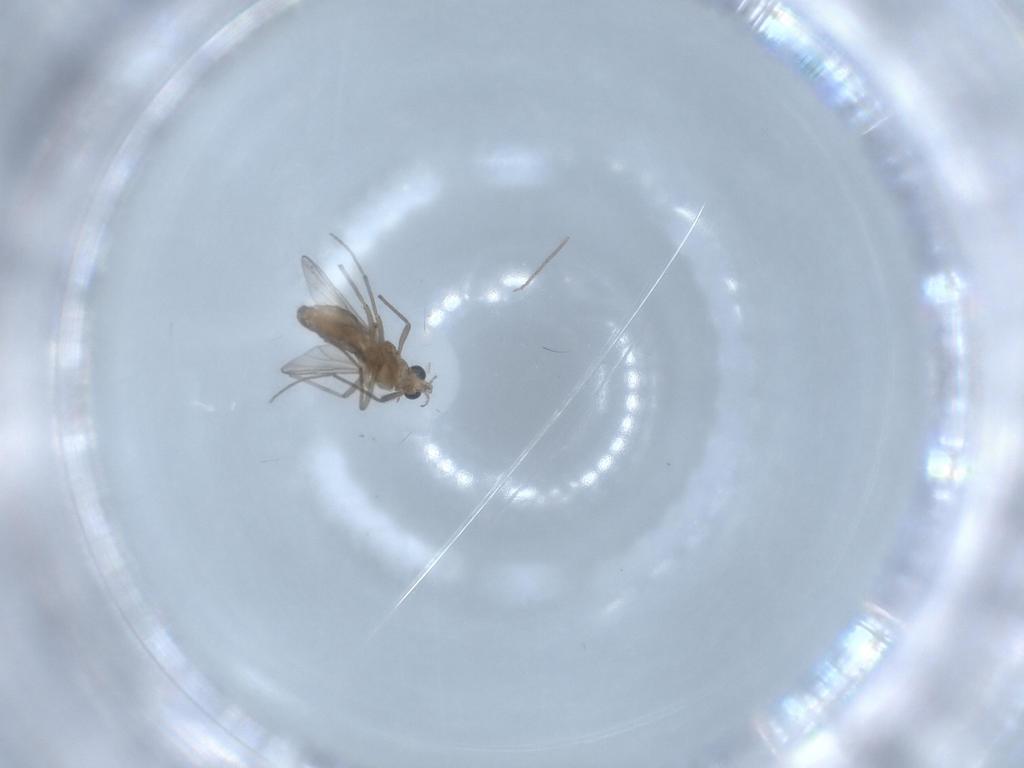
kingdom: Animalia
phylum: Arthropoda
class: Insecta
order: Diptera
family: Chironomidae
